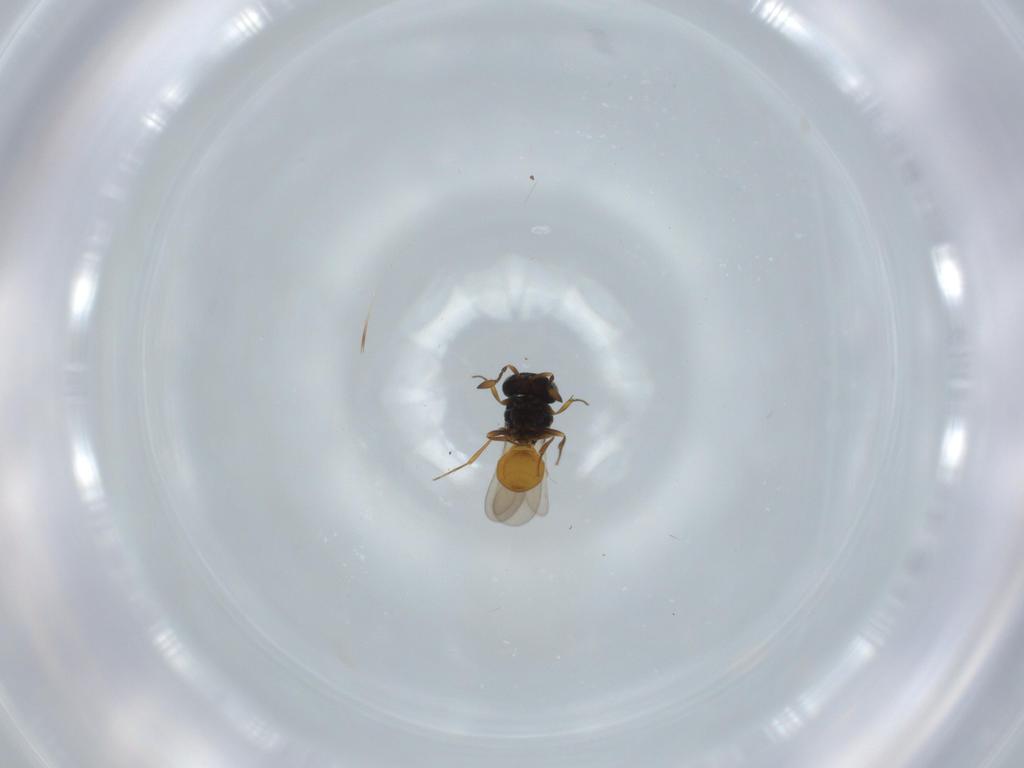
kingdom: Animalia
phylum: Arthropoda
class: Insecta
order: Hymenoptera
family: Scelionidae
